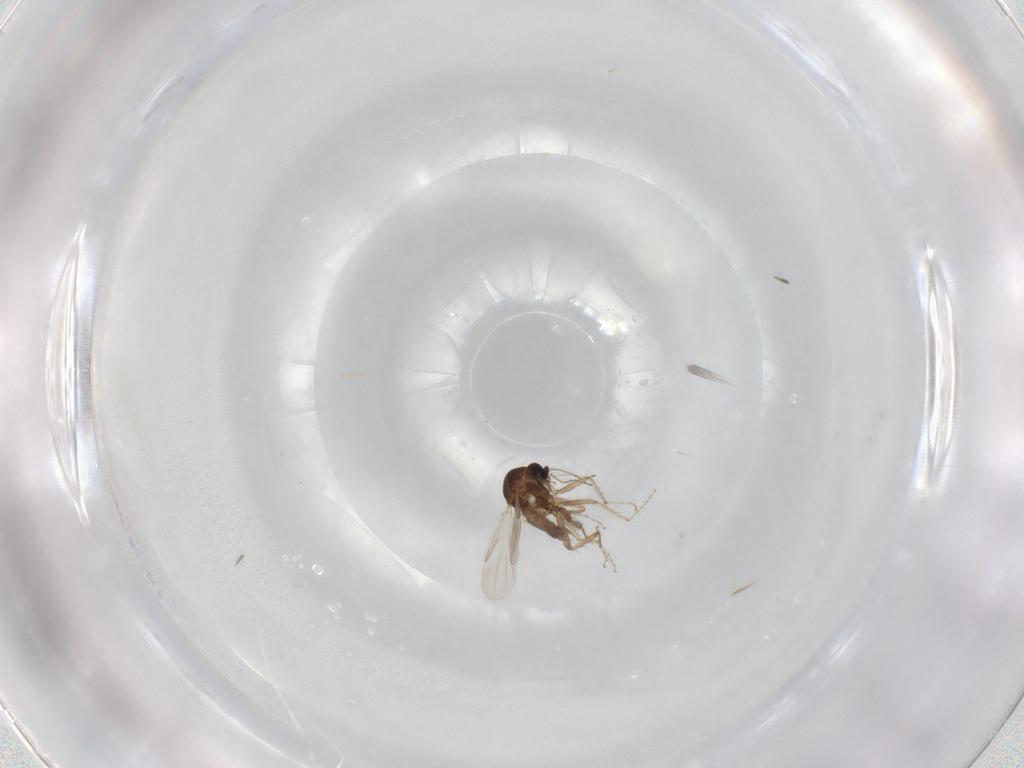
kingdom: Animalia
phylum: Arthropoda
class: Insecta
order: Diptera
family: Ceratopogonidae
